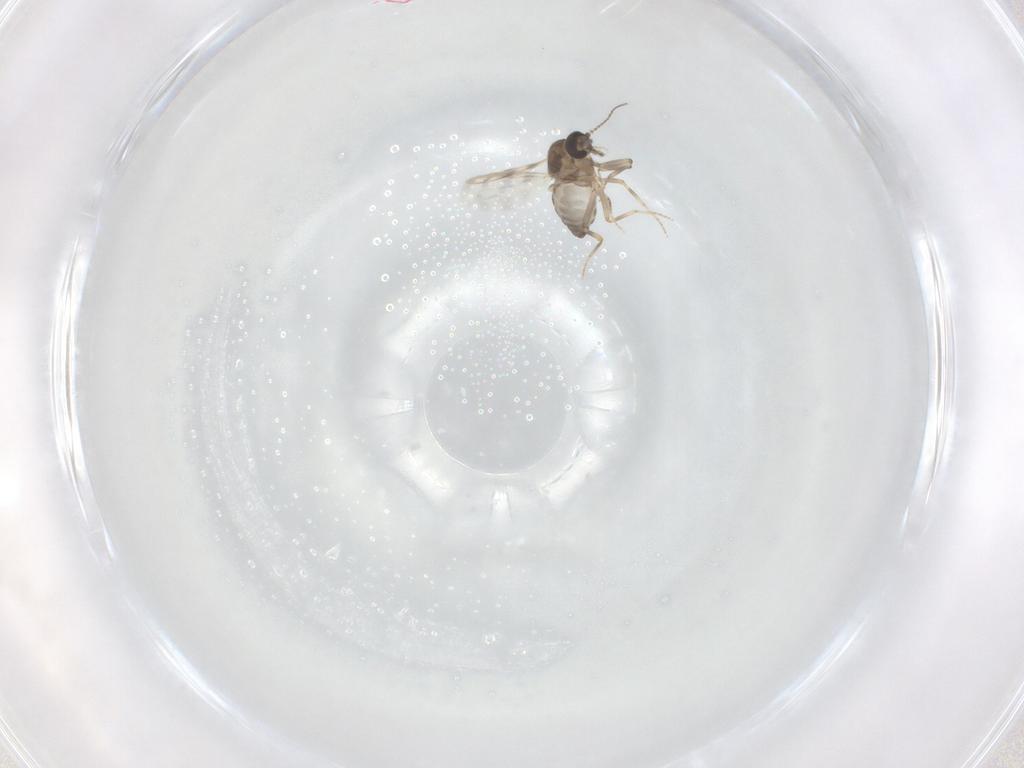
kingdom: Animalia
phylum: Arthropoda
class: Insecta
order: Diptera
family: Ceratopogonidae
